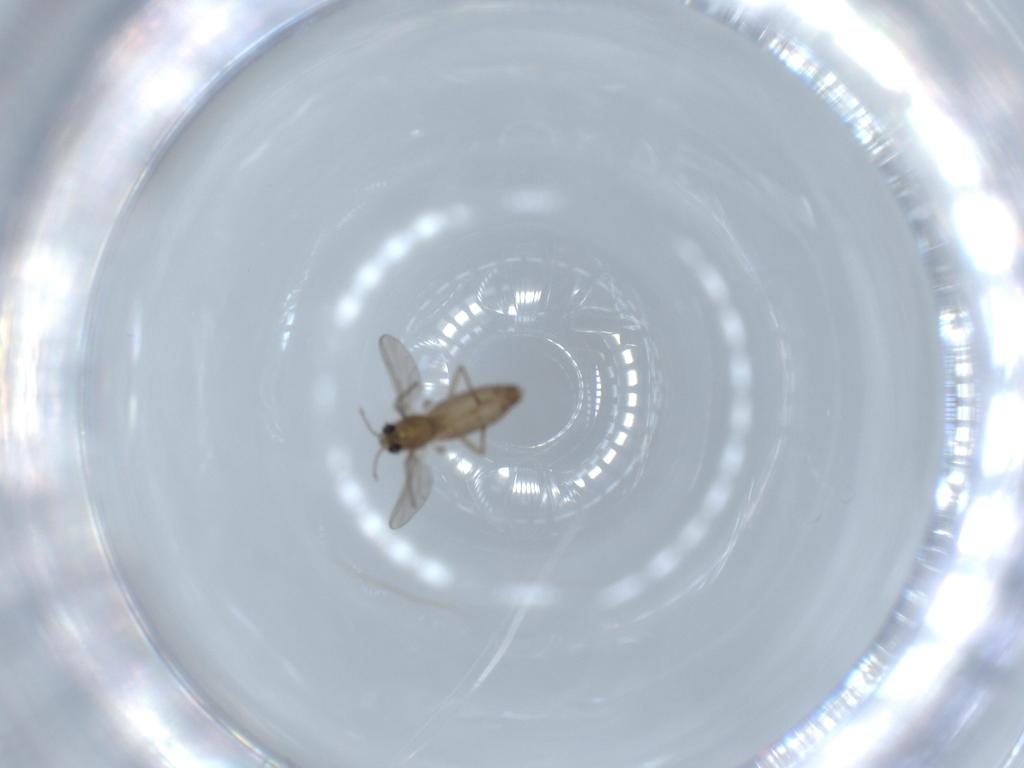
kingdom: Animalia
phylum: Arthropoda
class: Insecta
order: Diptera
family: Chironomidae
